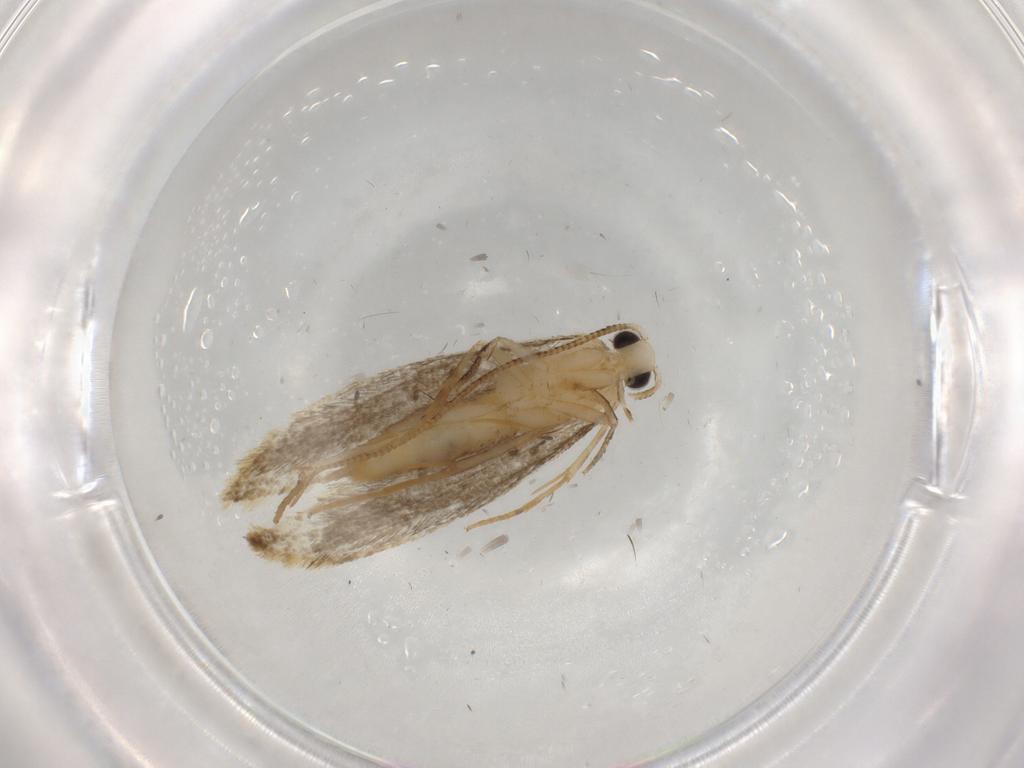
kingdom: Animalia
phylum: Arthropoda
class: Insecta
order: Lepidoptera
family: Tineidae
